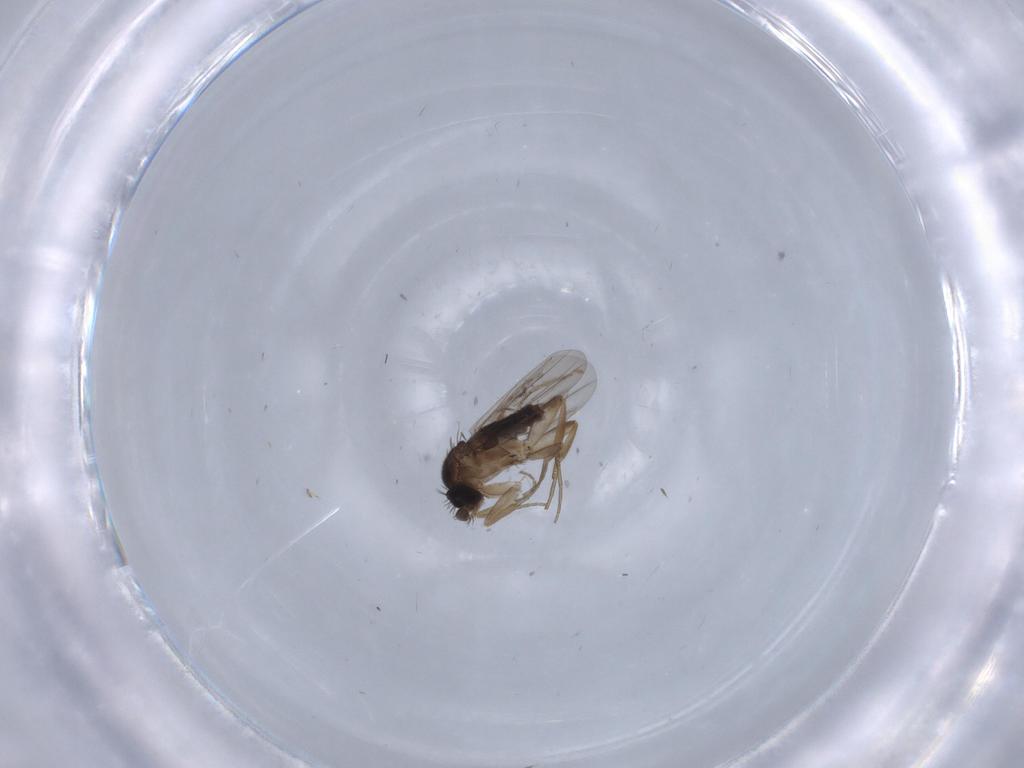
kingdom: Animalia
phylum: Arthropoda
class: Insecta
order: Diptera
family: Phoridae
